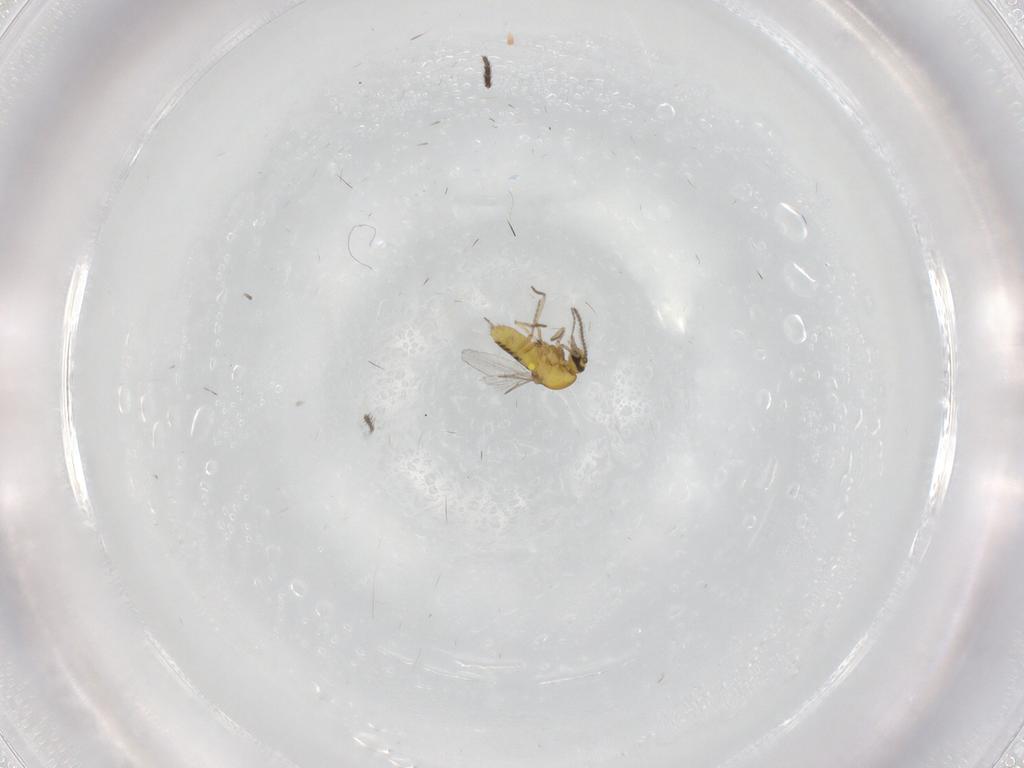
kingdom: Animalia
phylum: Arthropoda
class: Insecta
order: Diptera
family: Ceratopogonidae
